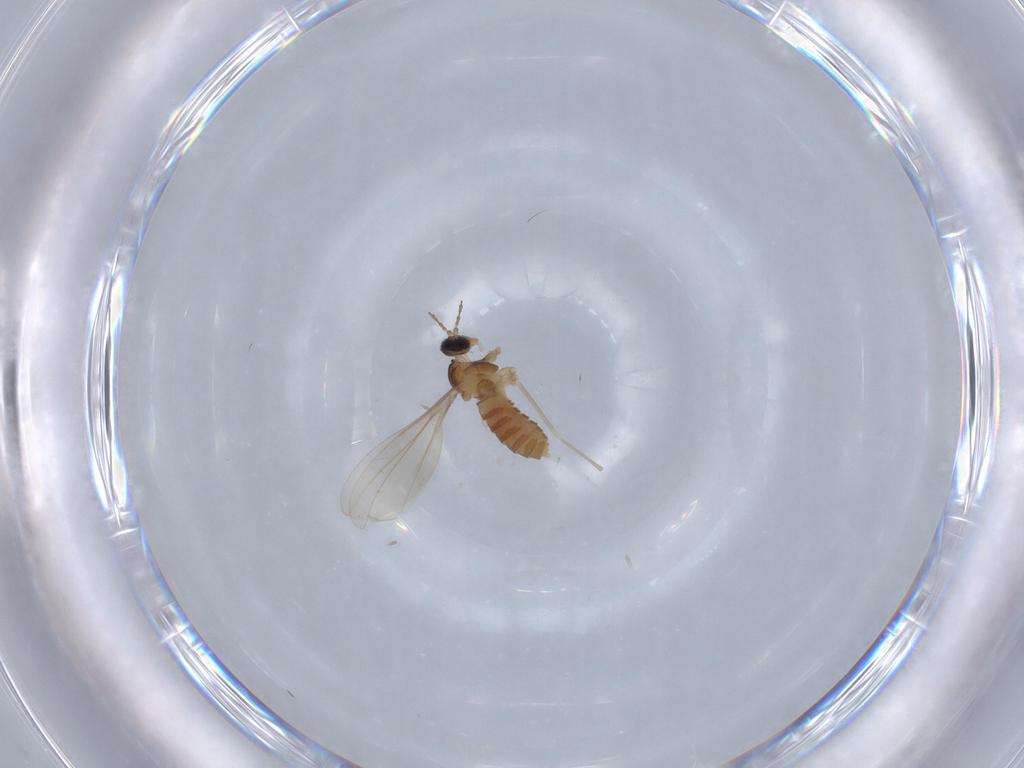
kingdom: Animalia
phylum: Arthropoda
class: Insecta
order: Diptera
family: Cecidomyiidae
